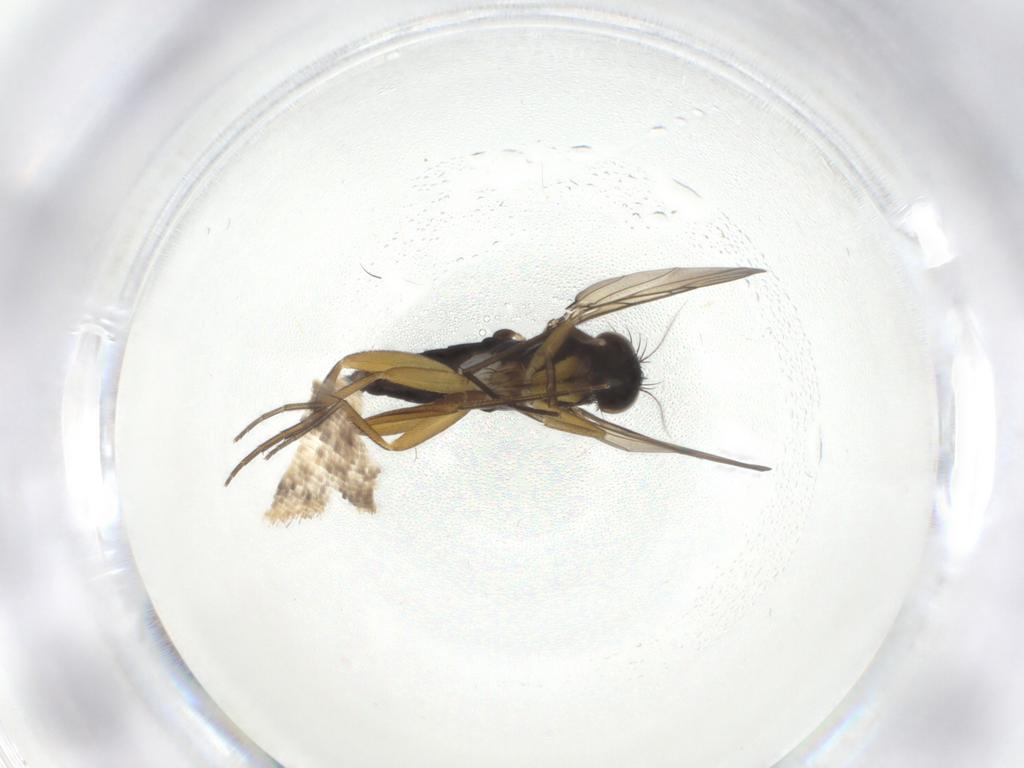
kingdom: Animalia
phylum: Arthropoda
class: Insecta
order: Diptera
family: Sciaridae
